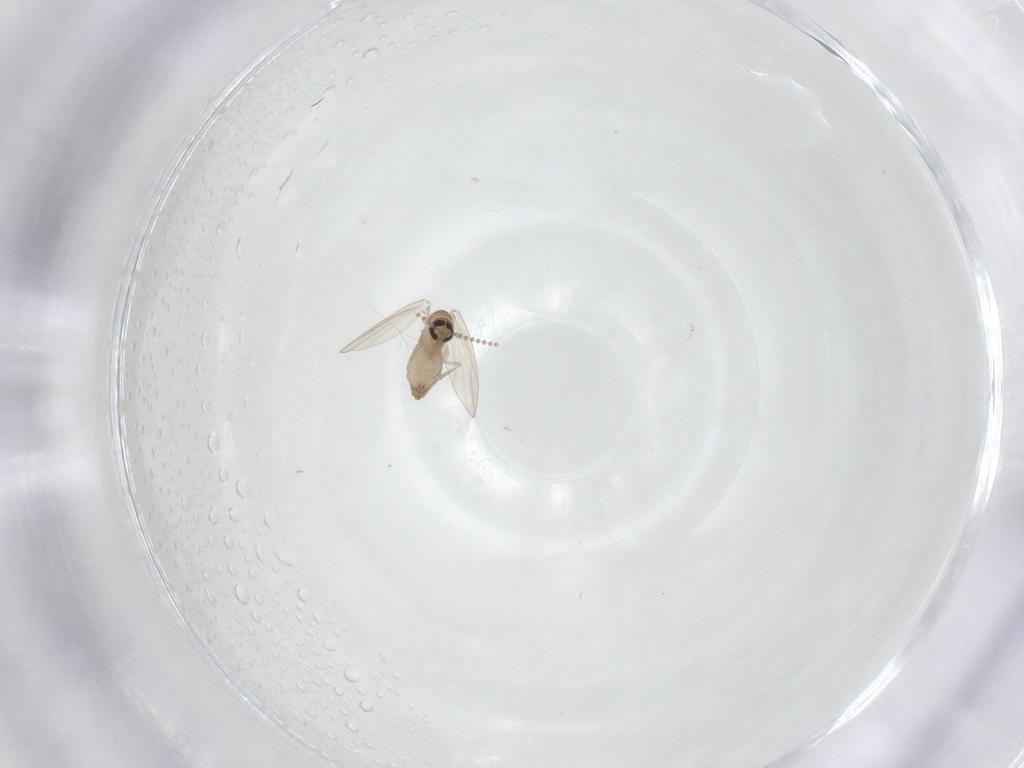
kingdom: Animalia
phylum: Arthropoda
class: Insecta
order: Diptera
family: Psychodidae
